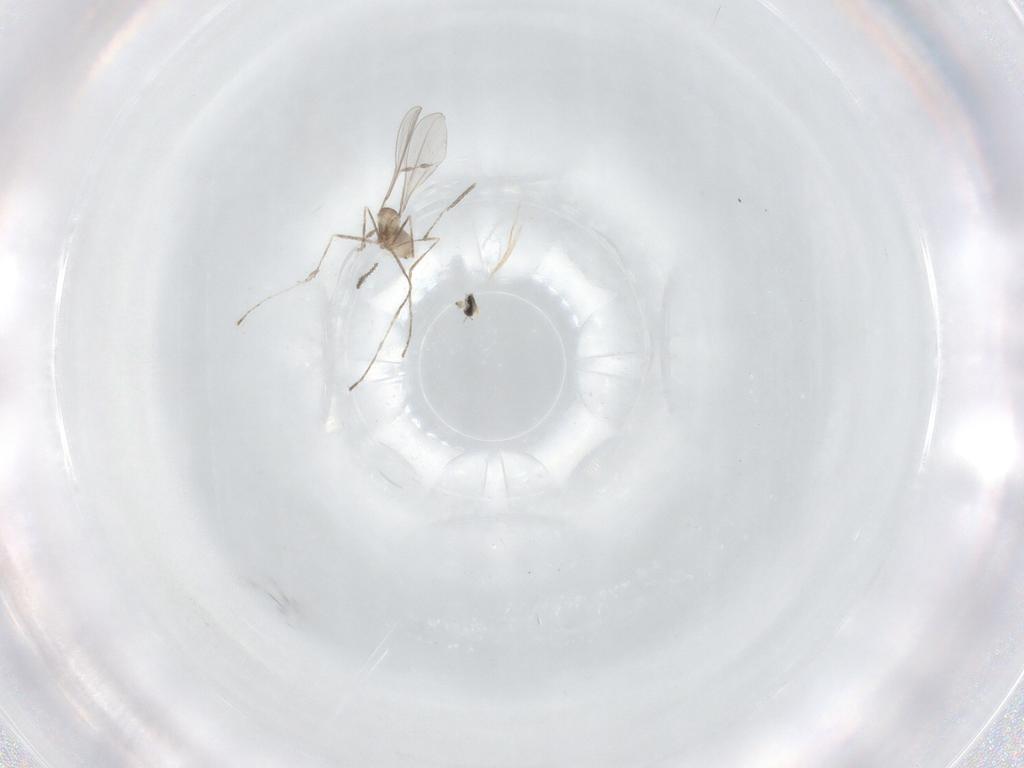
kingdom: Animalia
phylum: Arthropoda
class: Insecta
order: Diptera
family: Cecidomyiidae
